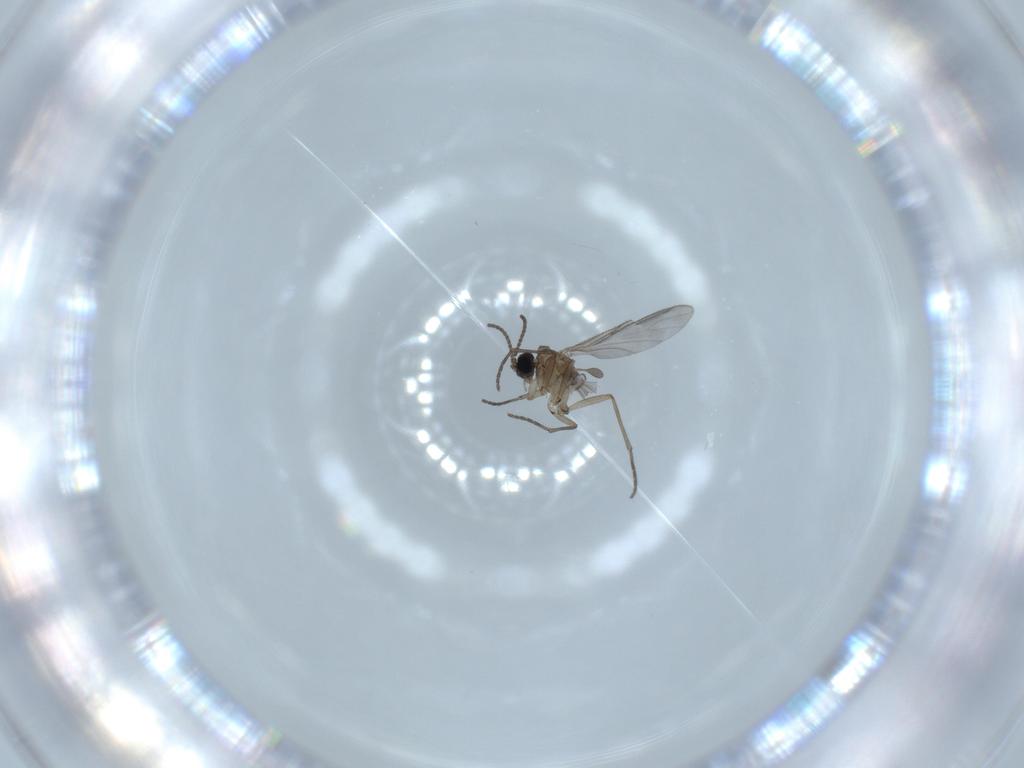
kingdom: Animalia
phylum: Arthropoda
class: Insecta
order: Diptera
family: Sciaridae
